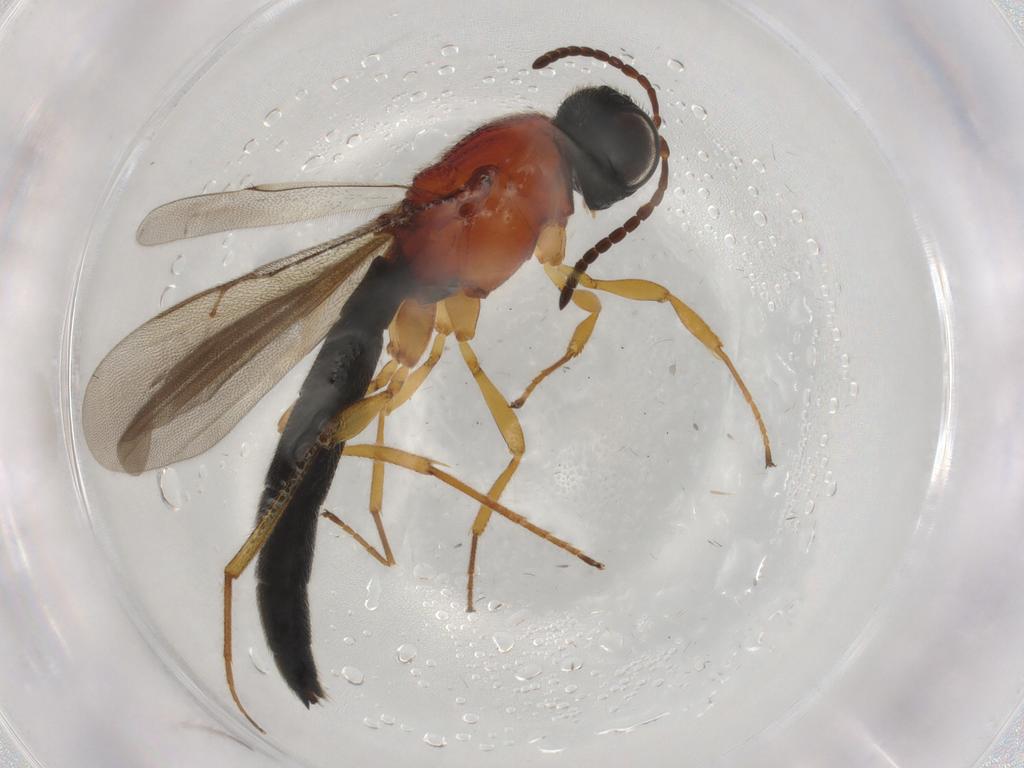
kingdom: Animalia
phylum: Arthropoda
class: Insecta
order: Hymenoptera
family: Scelionidae
